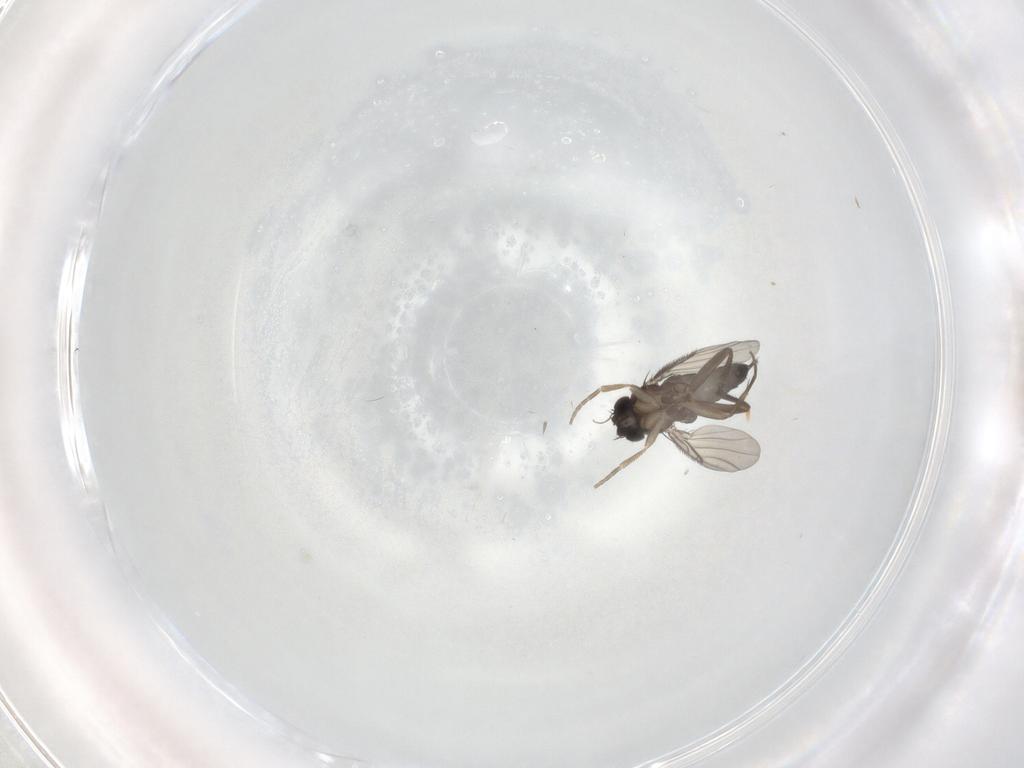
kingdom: Animalia
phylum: Arthropoda
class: Insecta
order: Diptera
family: Phoridae
